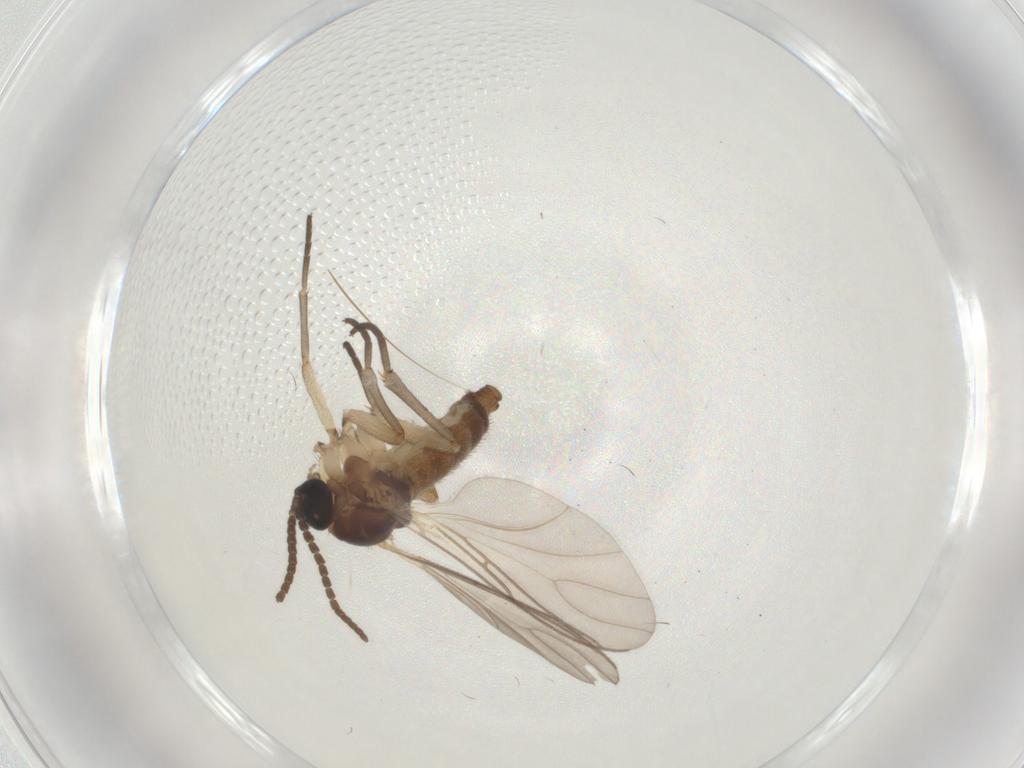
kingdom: Animalia
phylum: Arthropoda
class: Insecta
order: Diptera
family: Sciaridae
